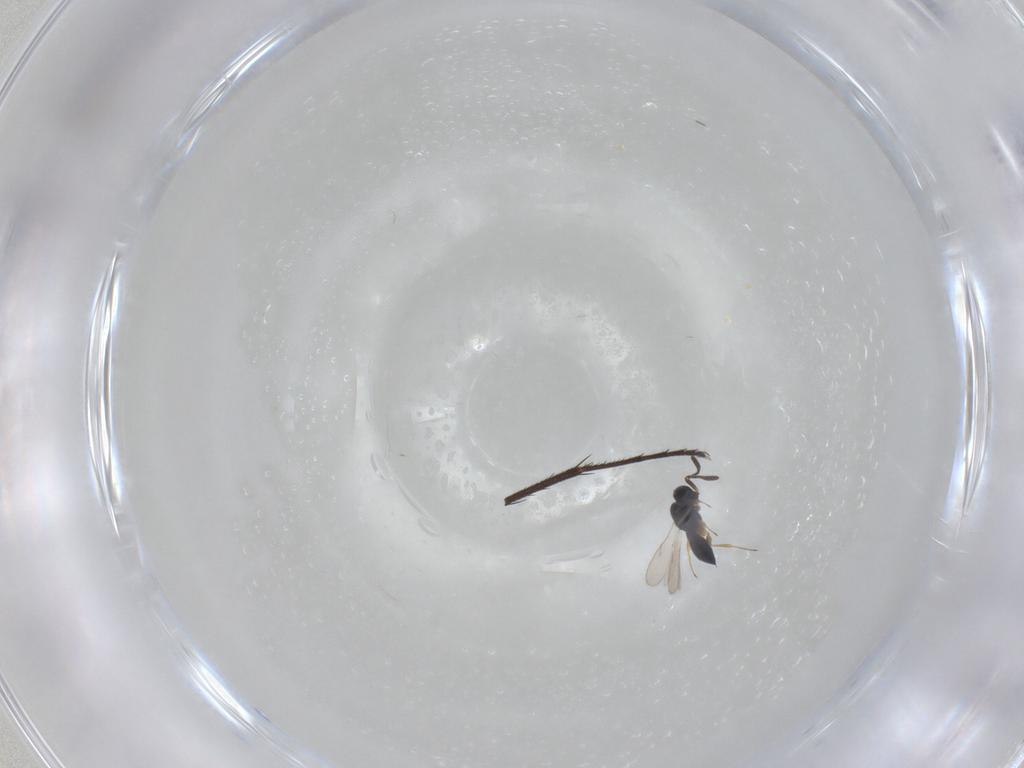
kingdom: Animalia
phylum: Arthropoda
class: Insecta
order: Hymenoptera
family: Scelionidae
